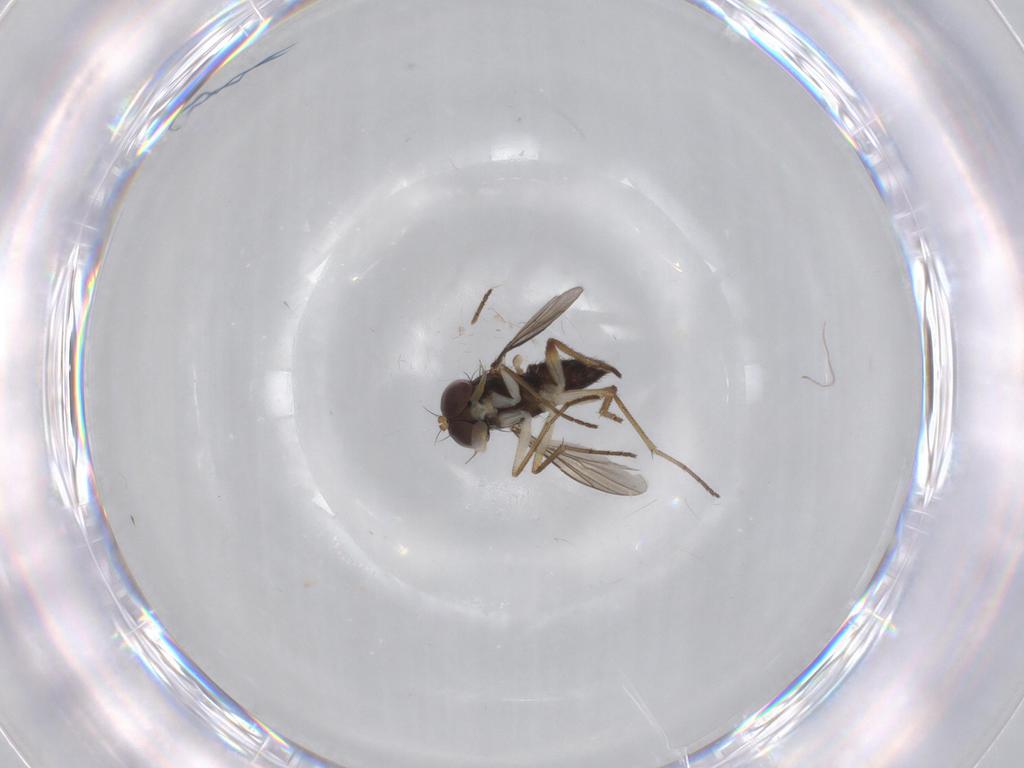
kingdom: Animalia
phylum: Arthropoda
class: Insecta
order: Diptera
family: Dolichopodidae
